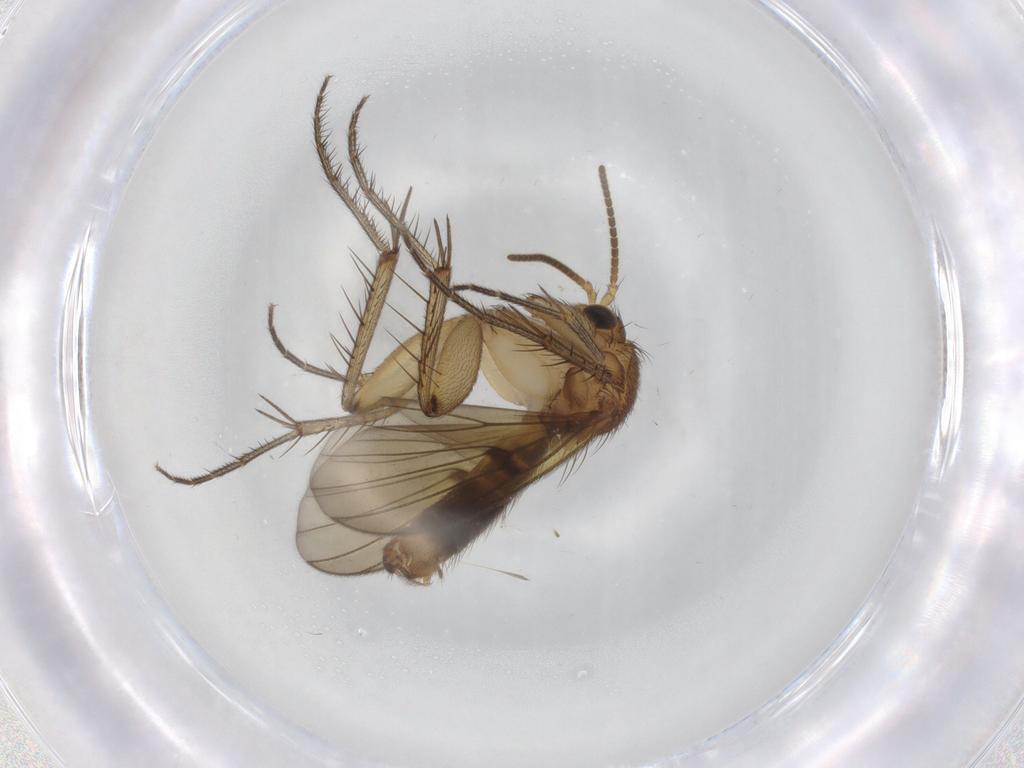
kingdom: Animalia
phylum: Arthropoda
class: Insecta
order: Diptera
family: Mycetophilidae
